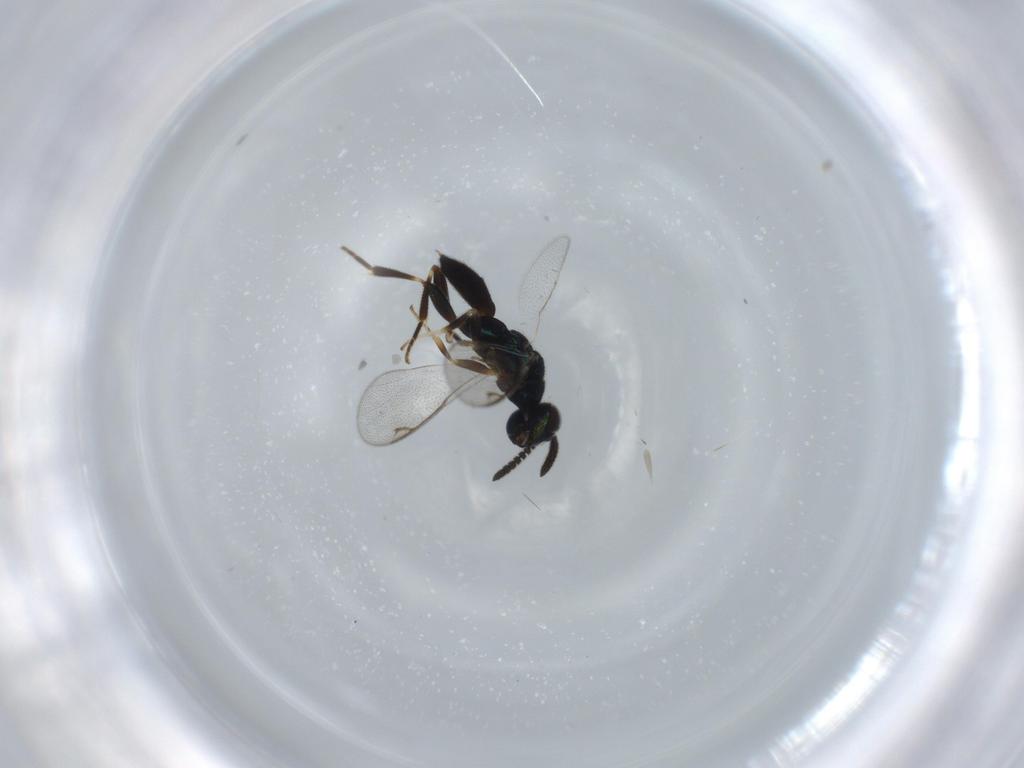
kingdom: Animalia
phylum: Arthropoda
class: Insecta
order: Hymenoptera
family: Cleonyminae
